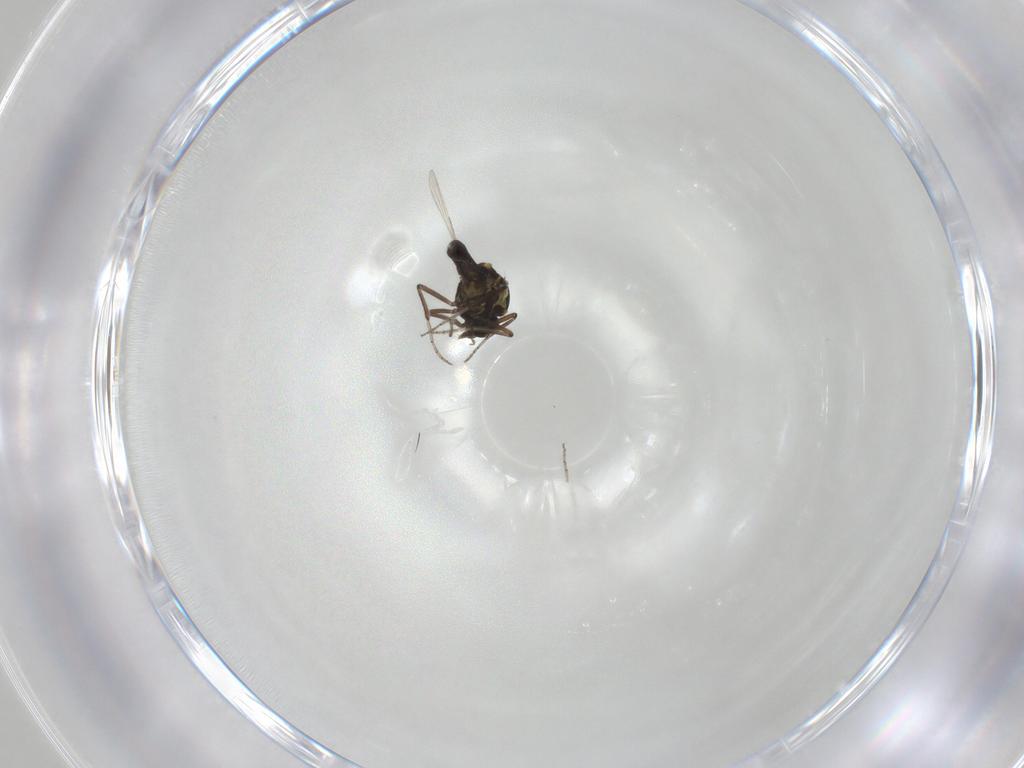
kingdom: Animalia
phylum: Arthropoda
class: Insecta
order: Diptera
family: Ceratopogonidae
